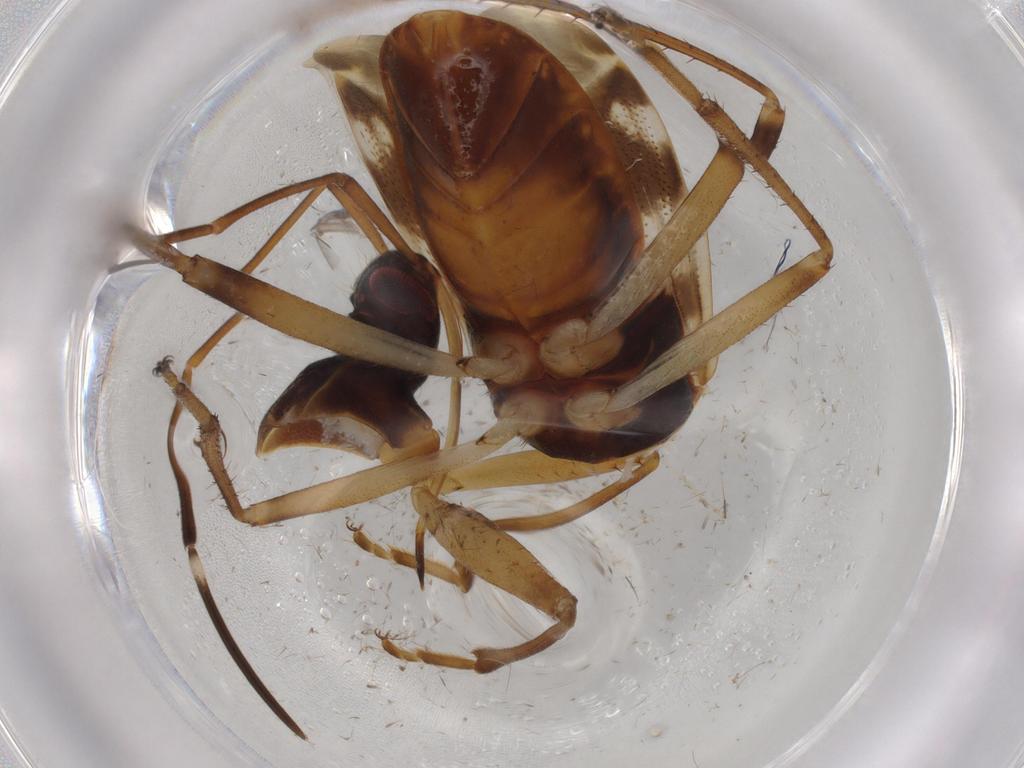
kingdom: Animalia
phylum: Arthropoda
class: Insecta
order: Hemiptera
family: Rhyparochromidae
